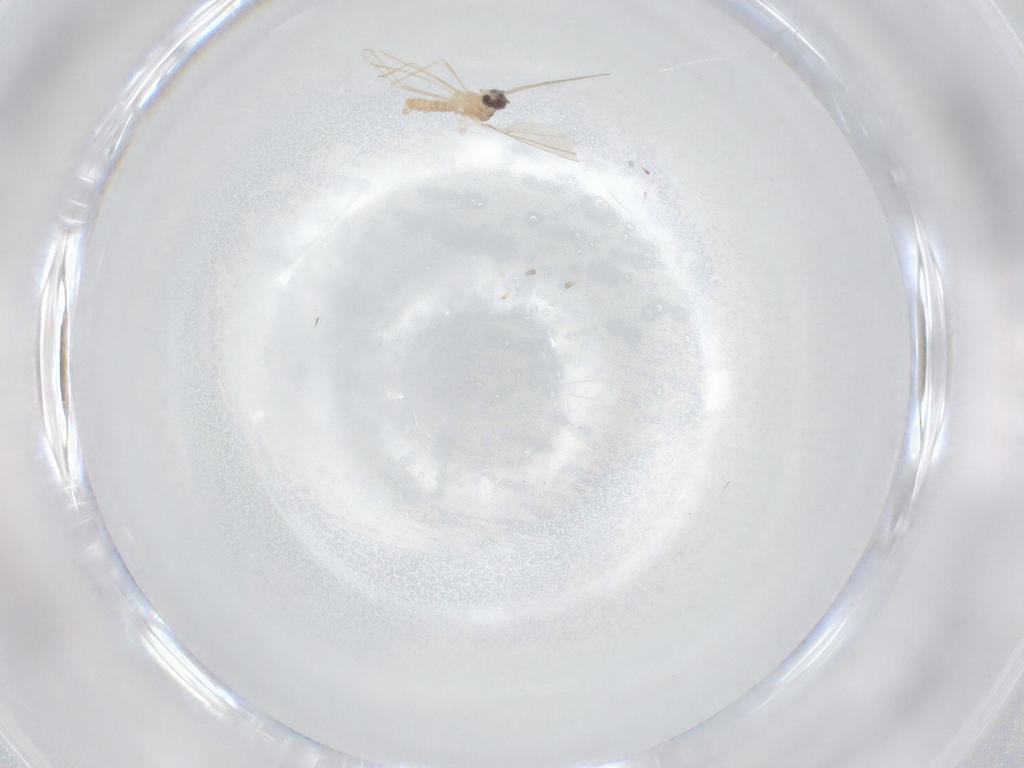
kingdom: Animalia
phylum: Arthropoda
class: Insecta
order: Diptera
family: Cecidomyiidae
